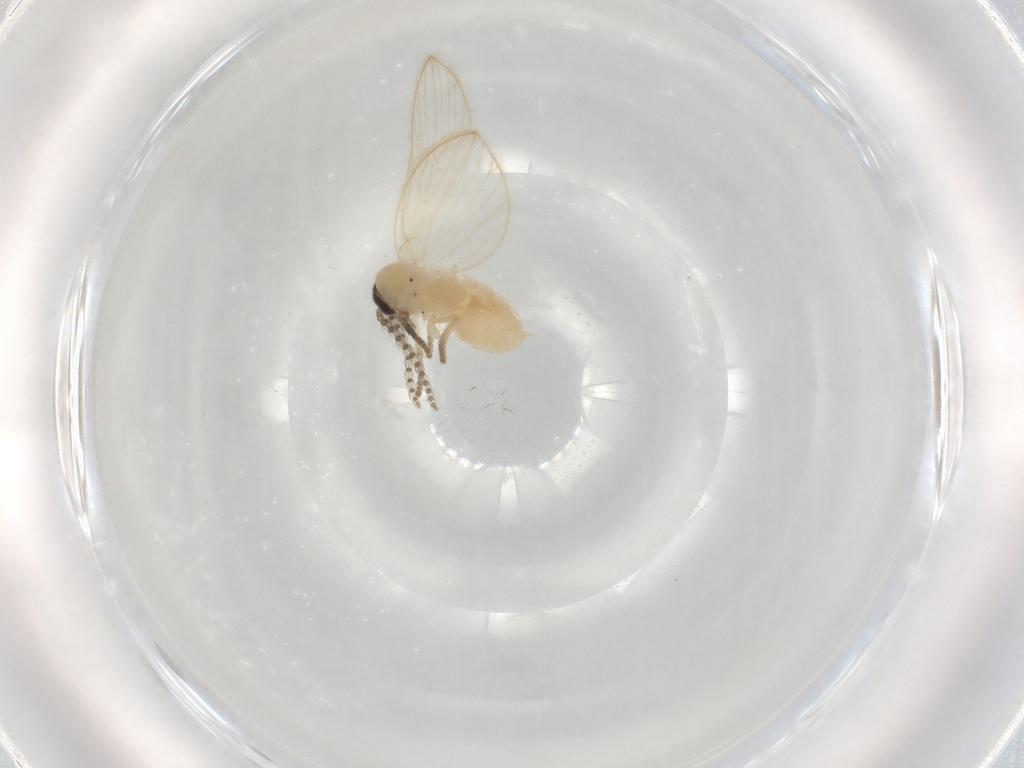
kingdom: Animalia
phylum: Arthropoda
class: Insecta
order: Diptera
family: Psychodidae
